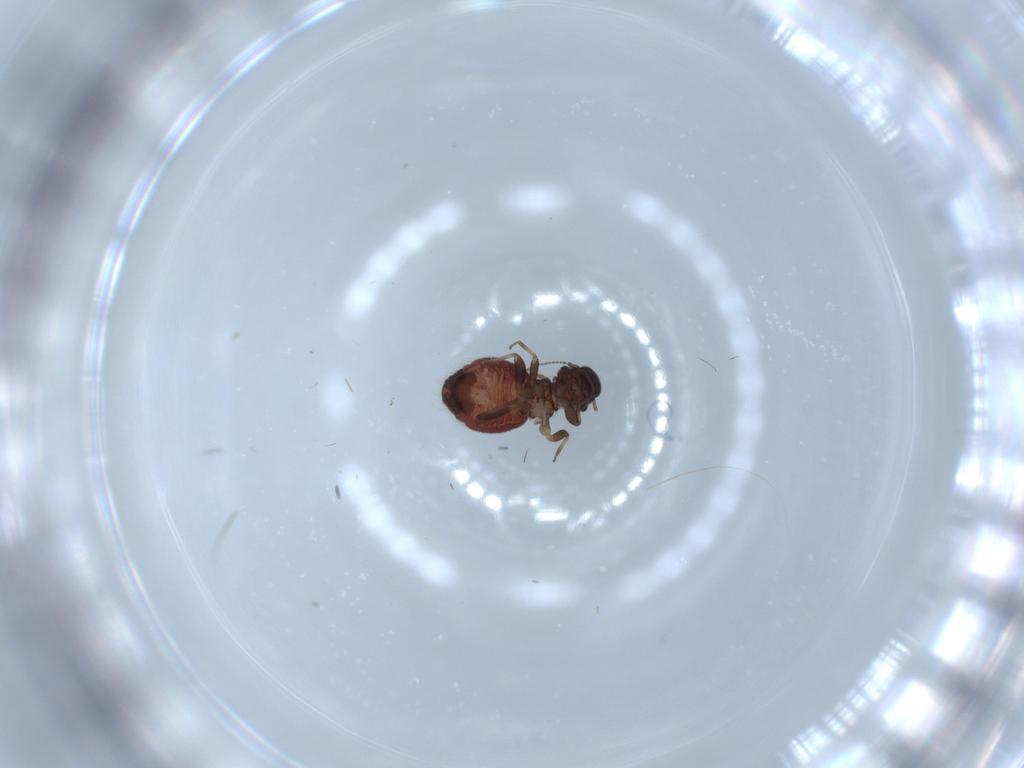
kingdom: Animalia
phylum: Arthropoda
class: Insecta
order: Psocodea
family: Archipsocidae
